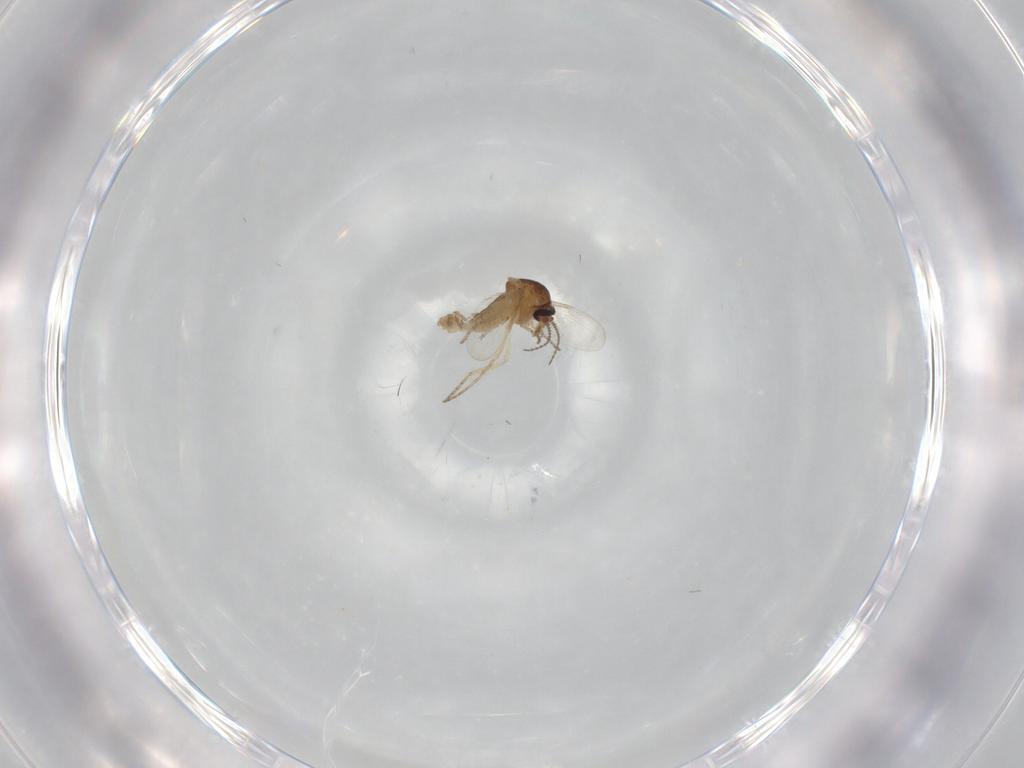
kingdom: Animalia
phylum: Arthropoda
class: Insecta
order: Diptera
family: Ceratopogonidae
